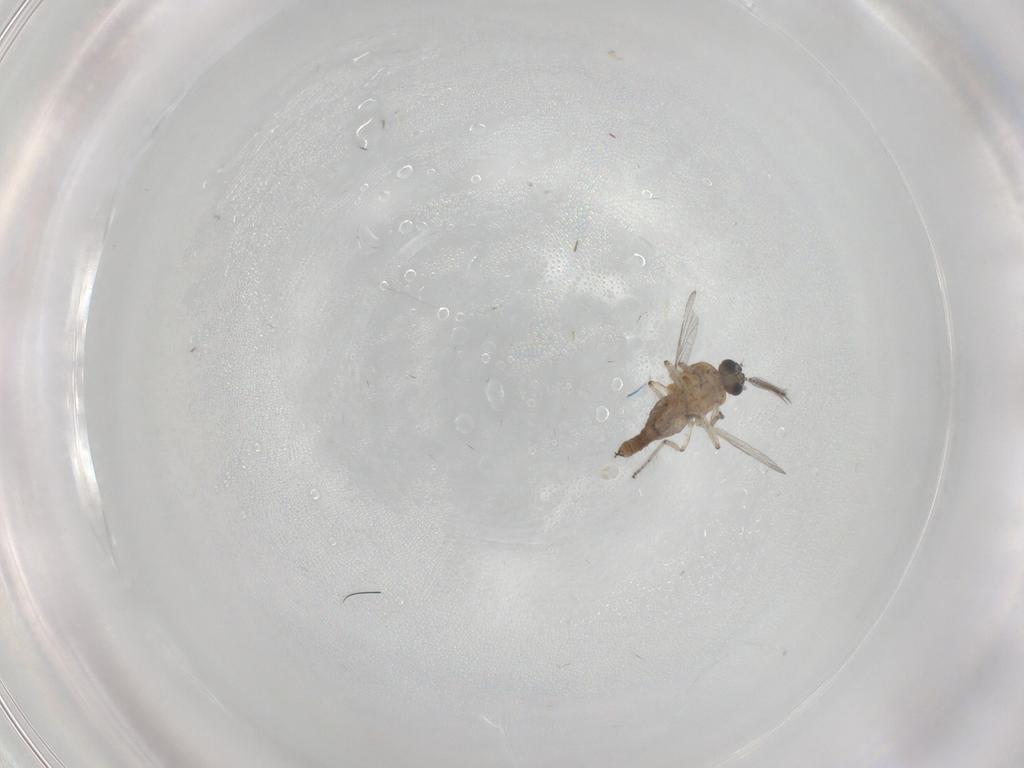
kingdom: Animalia
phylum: Arthropoda
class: Insecta
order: Diptera
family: Ceratopogonidae
